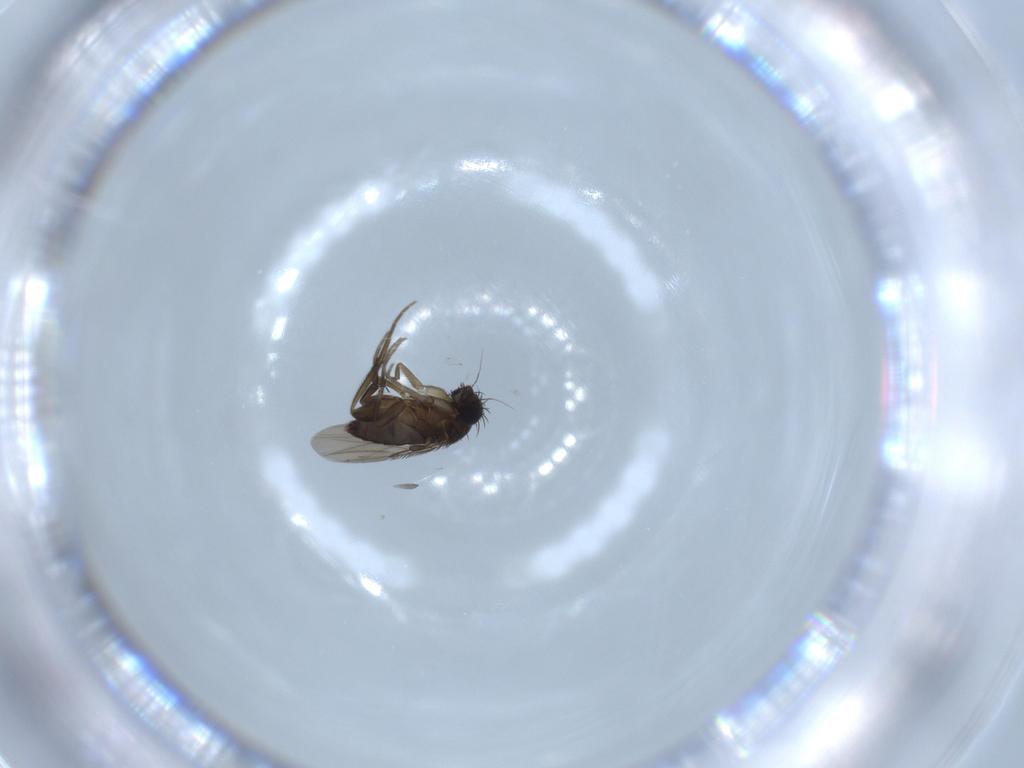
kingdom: Animalia
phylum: Arthropoda
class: Insecta
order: Diptera
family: Phoridae
